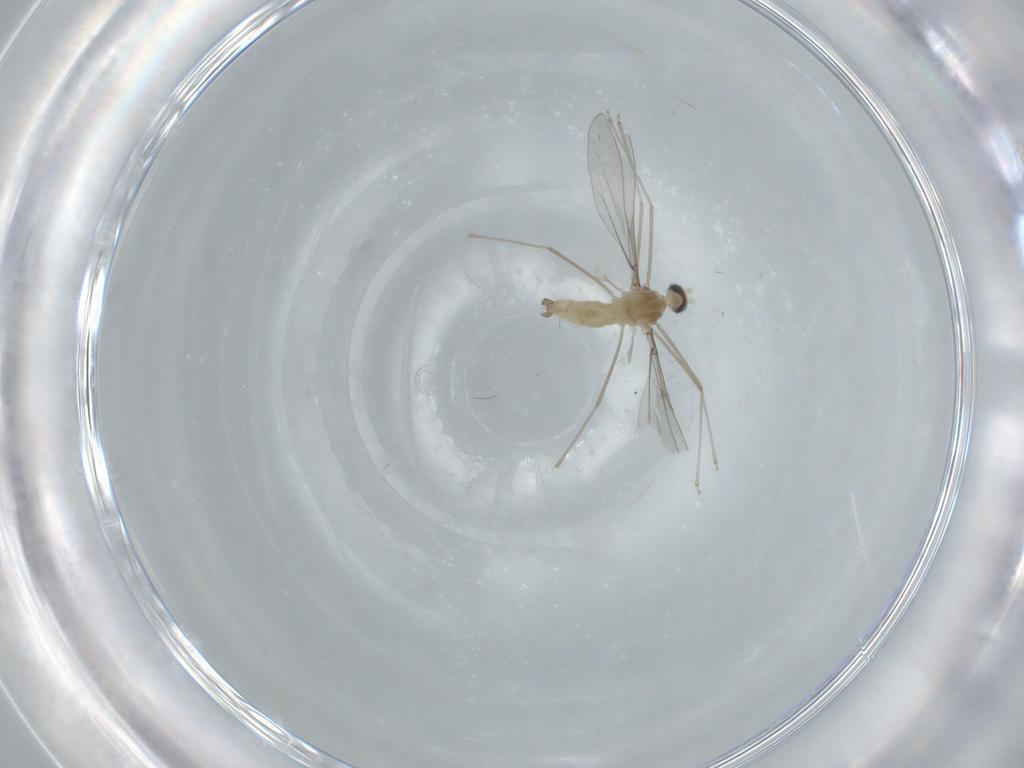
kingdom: Animalia
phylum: Arthropoda
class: Insecta
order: Diptera
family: Cecidomyiidae
